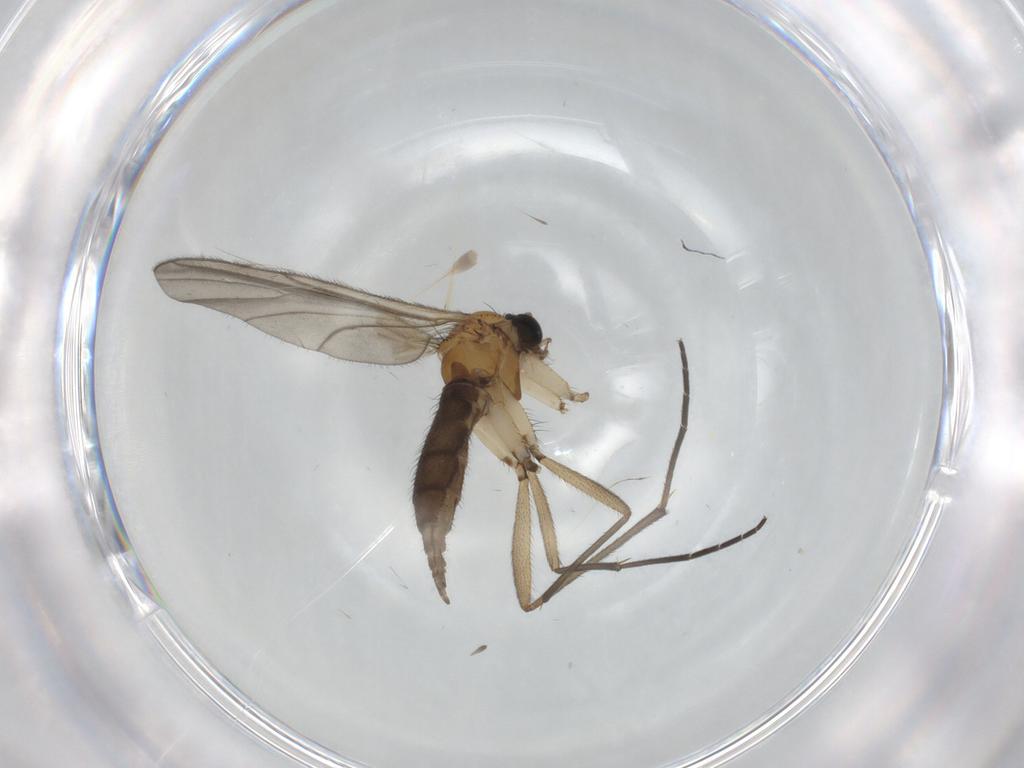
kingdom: Animalia
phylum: Arthropoda
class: Insecta
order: Diptera
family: Sciaridae
